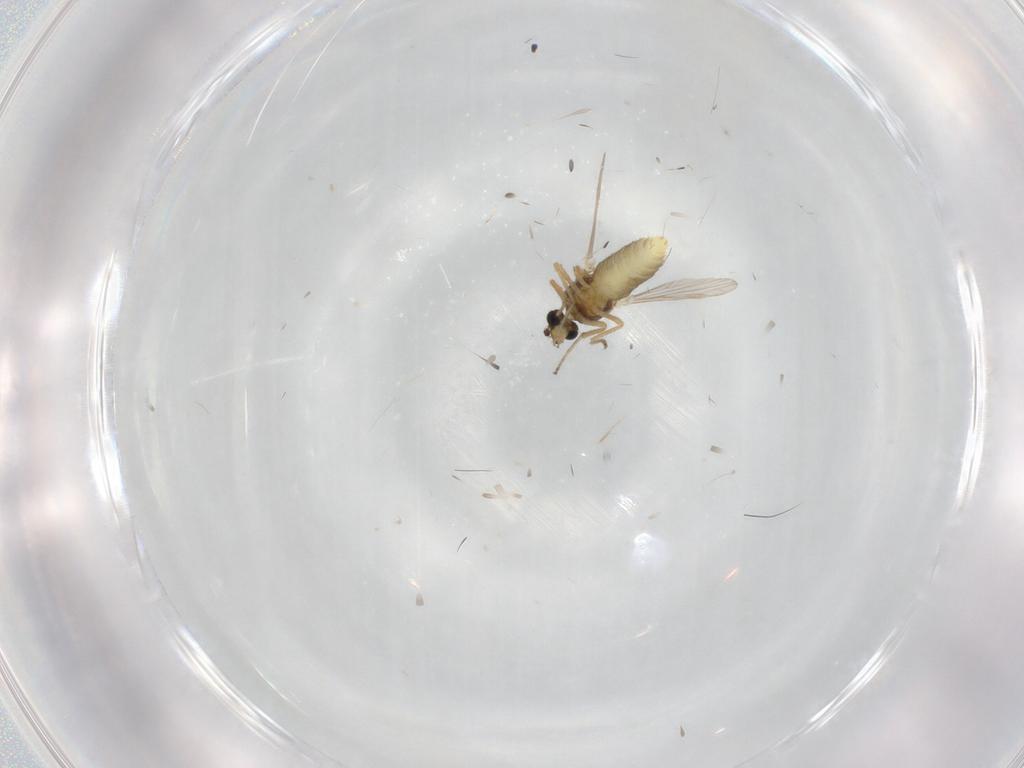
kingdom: Animalia
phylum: Arthropoda
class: Insecta
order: Diptera
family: Ceratopogonidae
